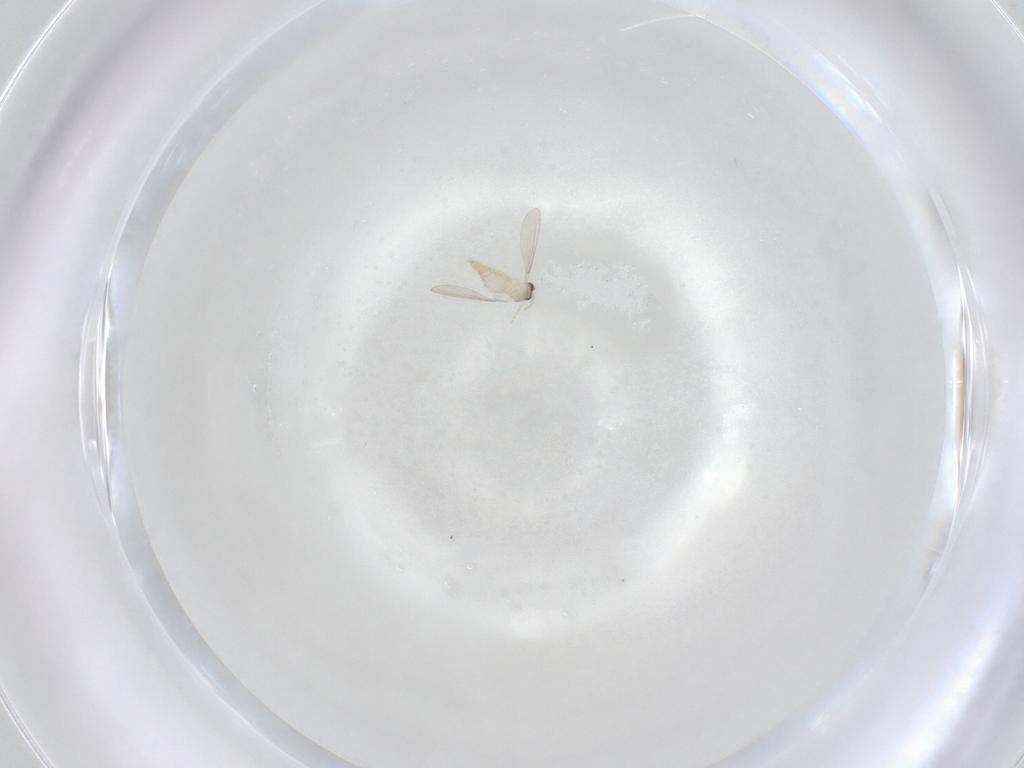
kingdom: Animalia
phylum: Arthropoda
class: Insecta
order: Diptera
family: Cecidomyiidae
